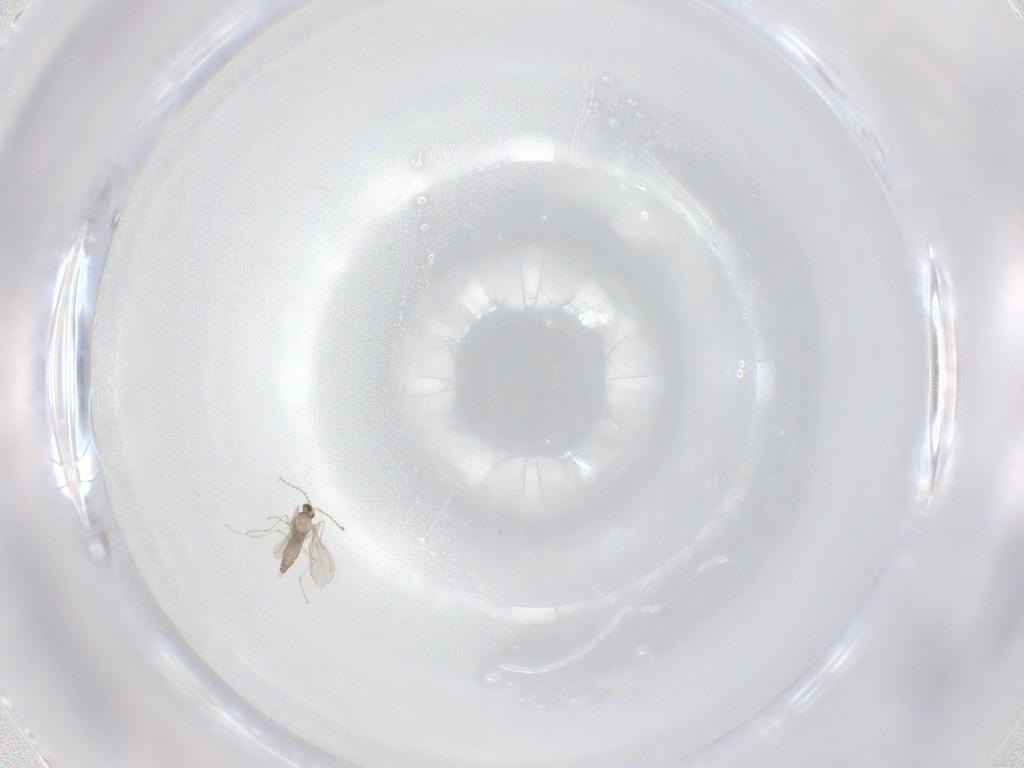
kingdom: Animalia
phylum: Arthropoda
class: Insecta
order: Diptera
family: Cecidomyiidae
